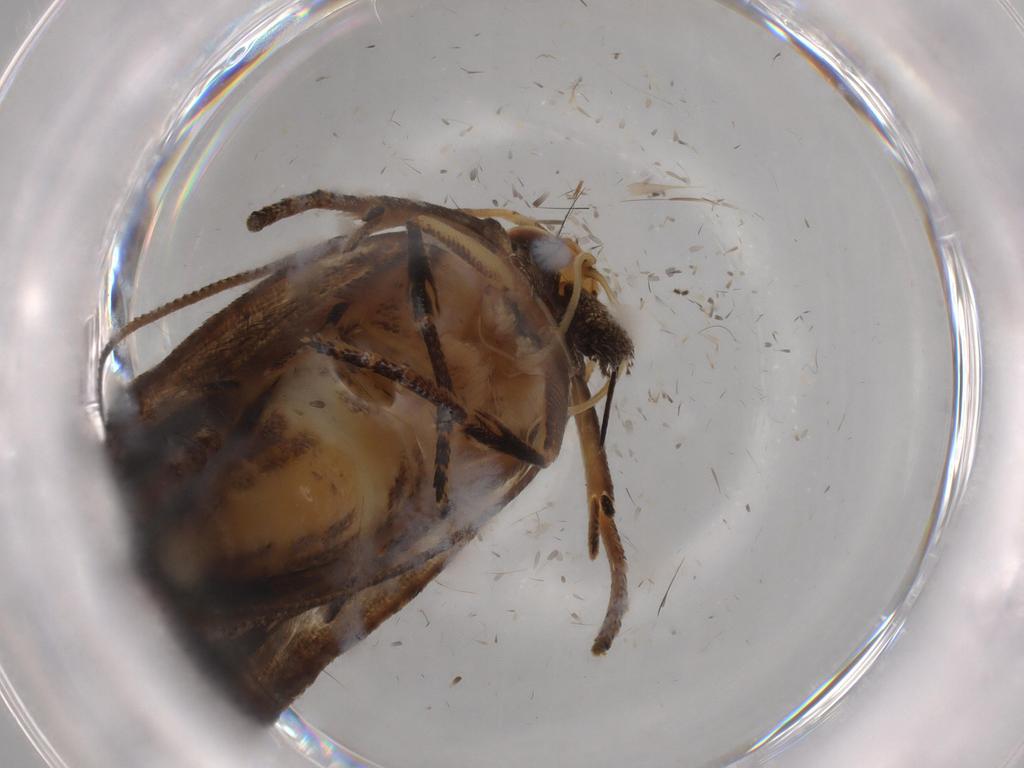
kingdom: Animalia
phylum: Arthropoda
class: Insecta
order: Lepidoptera
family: Gelechiidae
